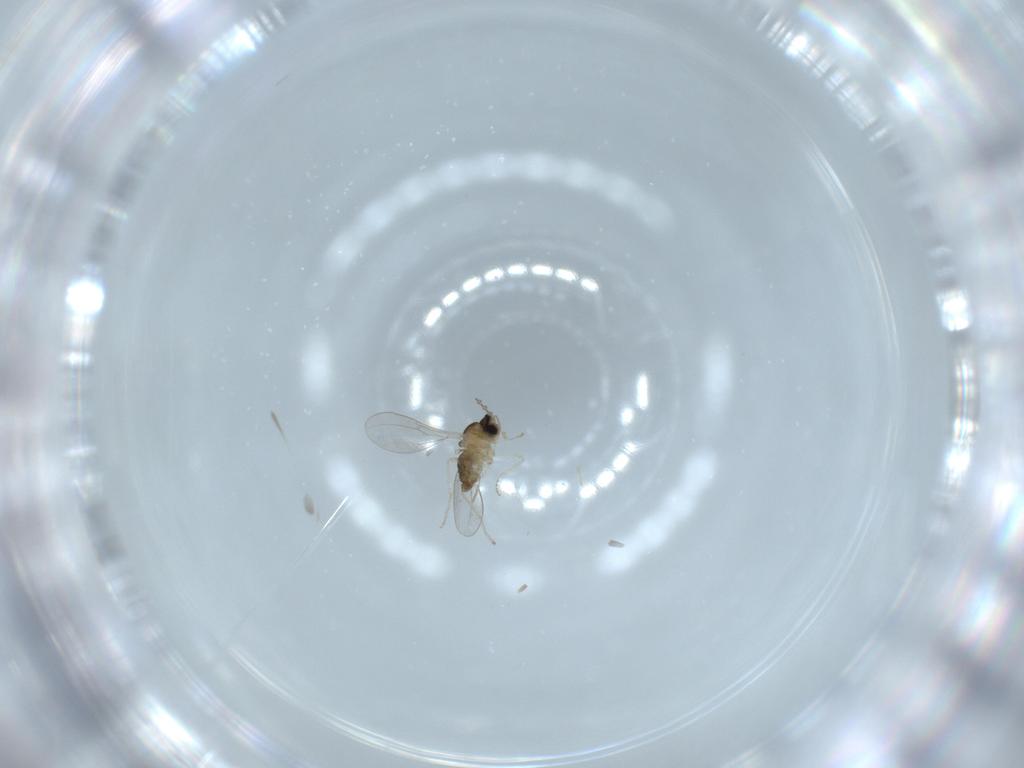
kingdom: Animalia
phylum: Arthropoda
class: Insecta
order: Diptera
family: Cecidomyiidae
